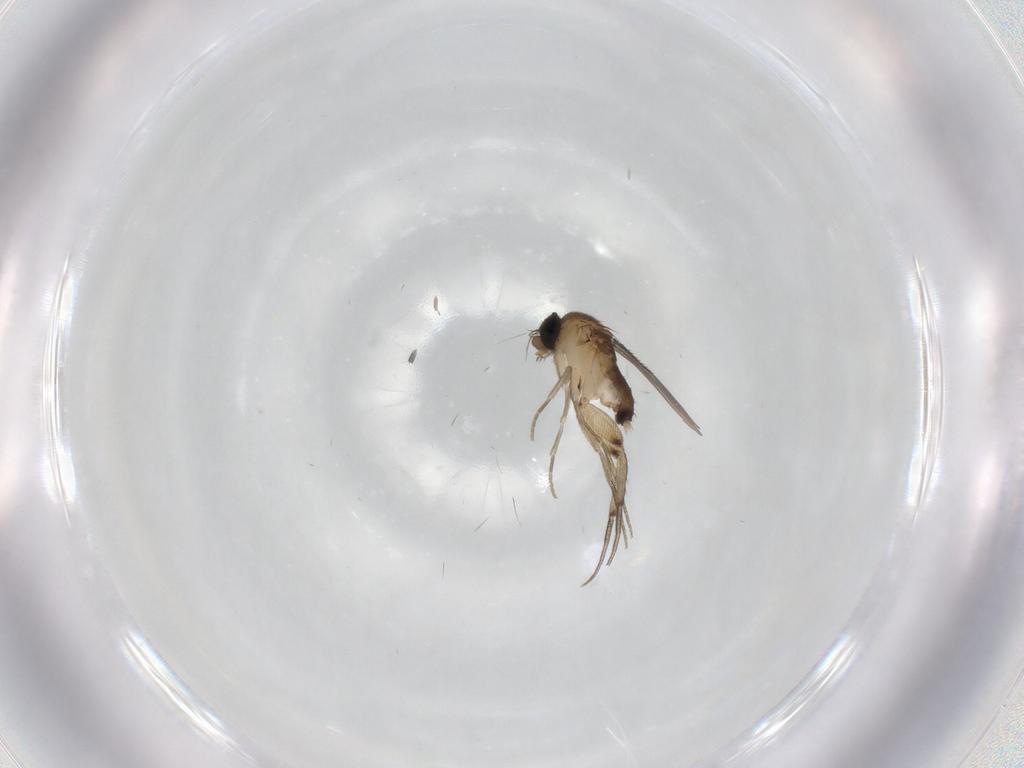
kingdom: Animalia
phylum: Arthropoda
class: Insecta
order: Diptera
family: Phoridae
